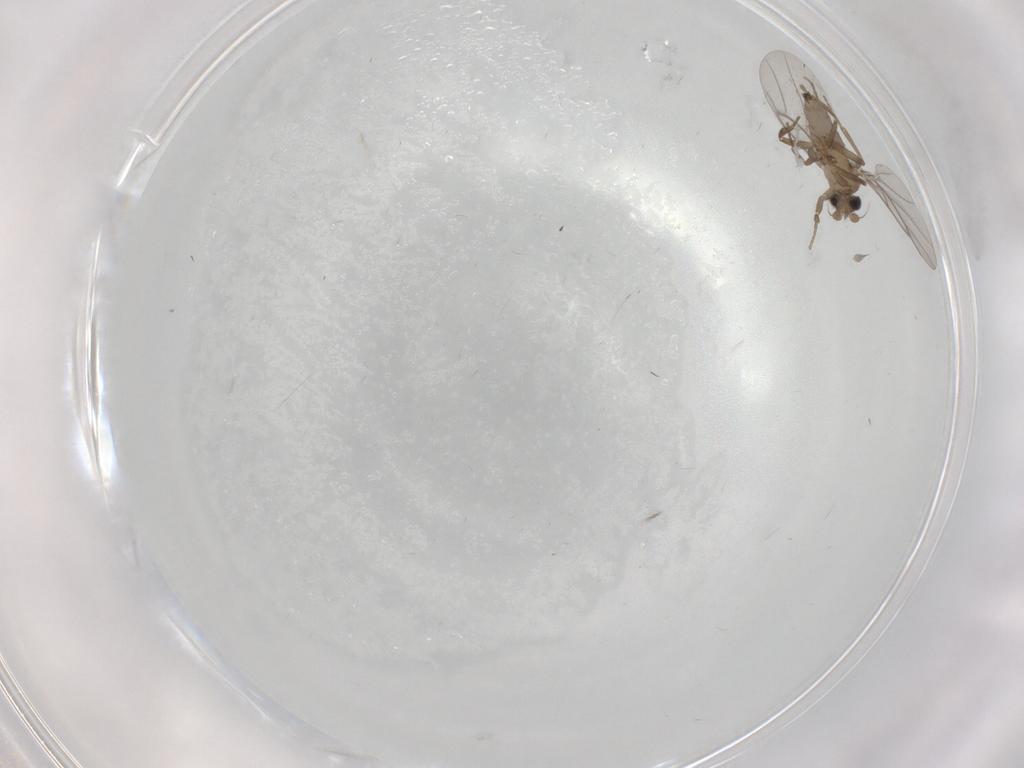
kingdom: Animalia
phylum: Arthropoda
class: Insecta
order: Diptera
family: Cecidomyiidae
